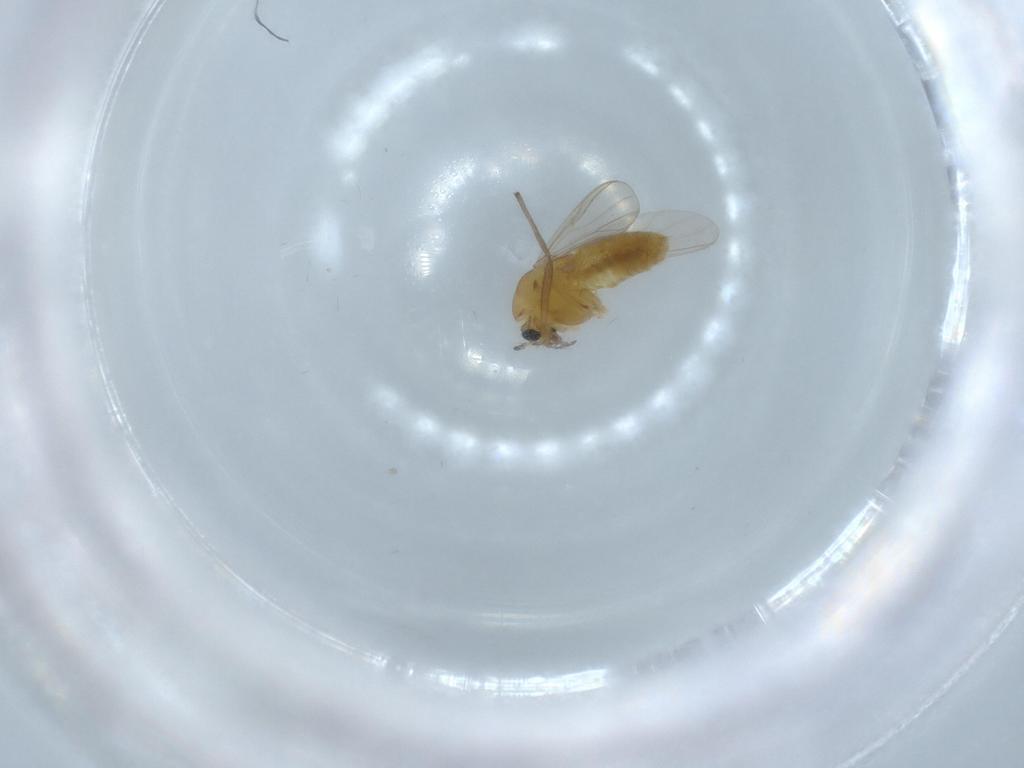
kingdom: Animalia
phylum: Arthropoda
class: Insecta
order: Diptera
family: Chironomidae
